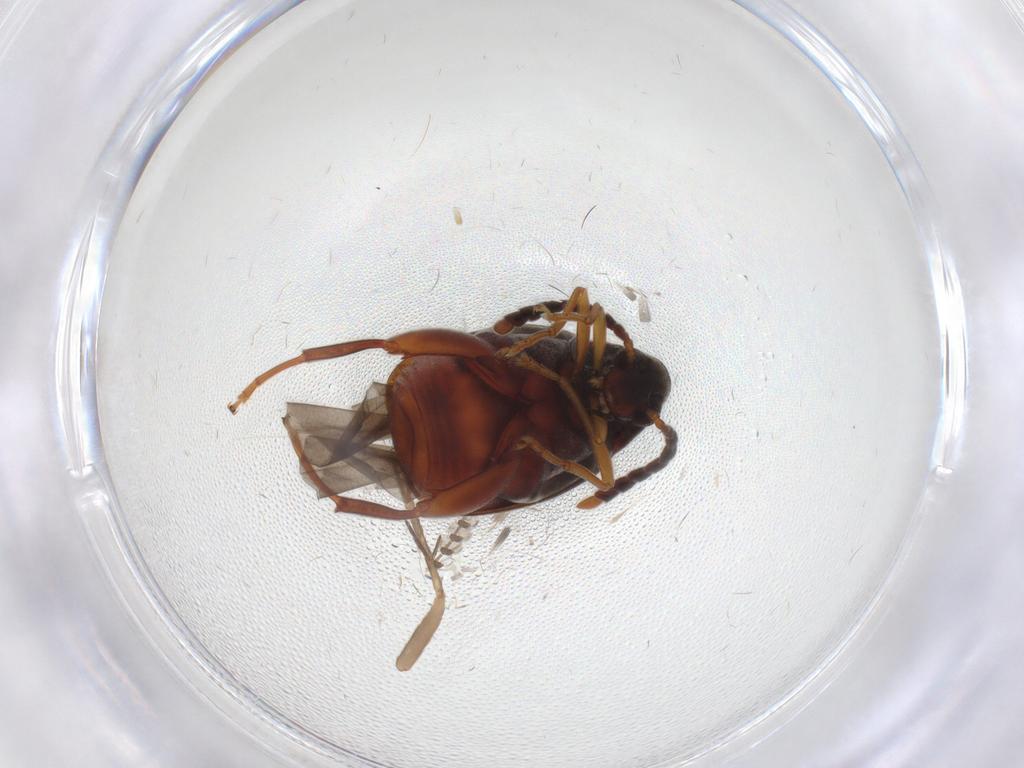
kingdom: Animalia
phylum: Arthropoda
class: Insecta
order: Coleoptera
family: Chrysomelidae
